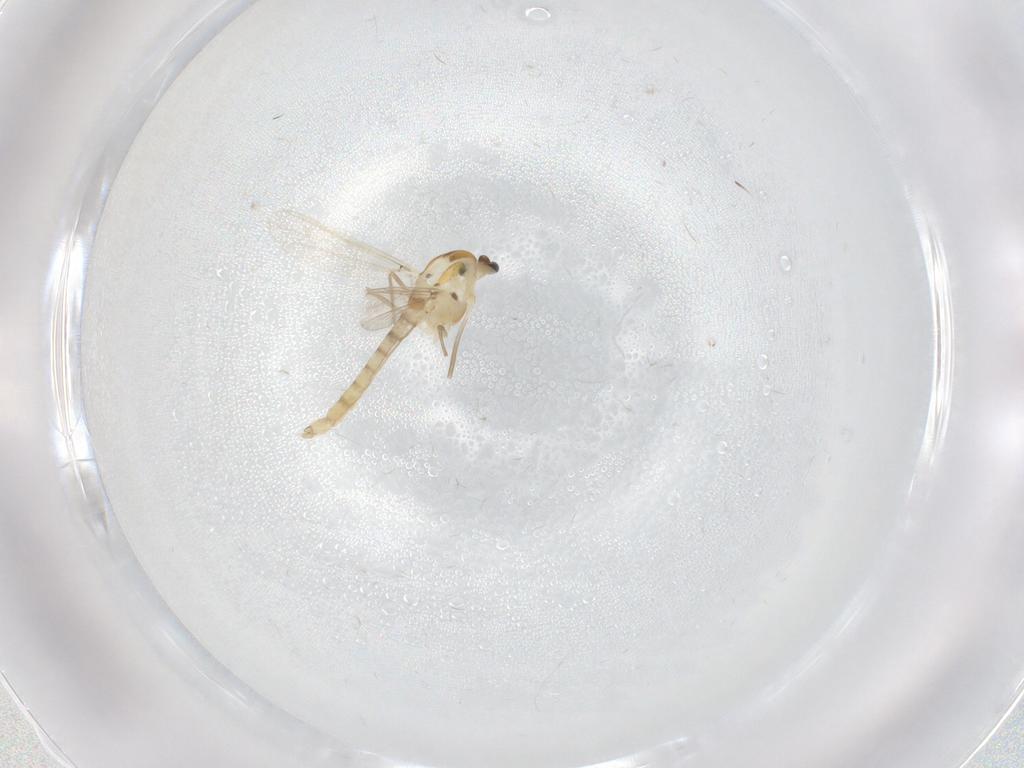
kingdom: Animalia
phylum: Arthropoda
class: Insecta
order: Diptera
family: Chironomidae
